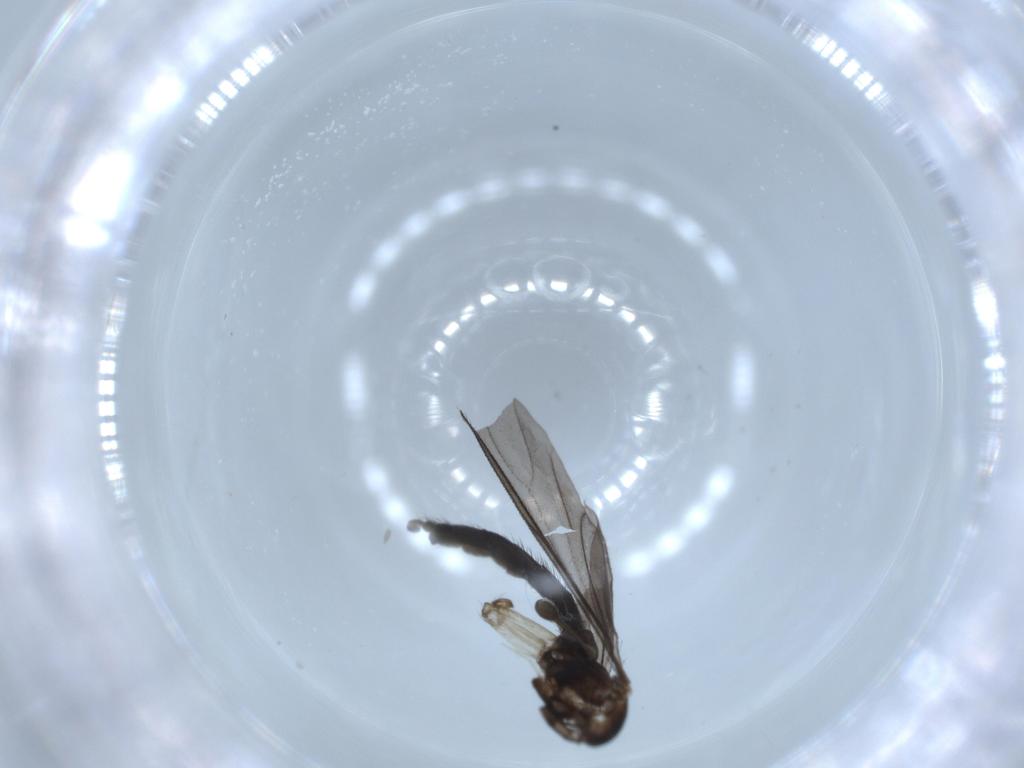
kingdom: Animalia
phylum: Arthropoda
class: Insecta
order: Diptera
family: Sciaridae
